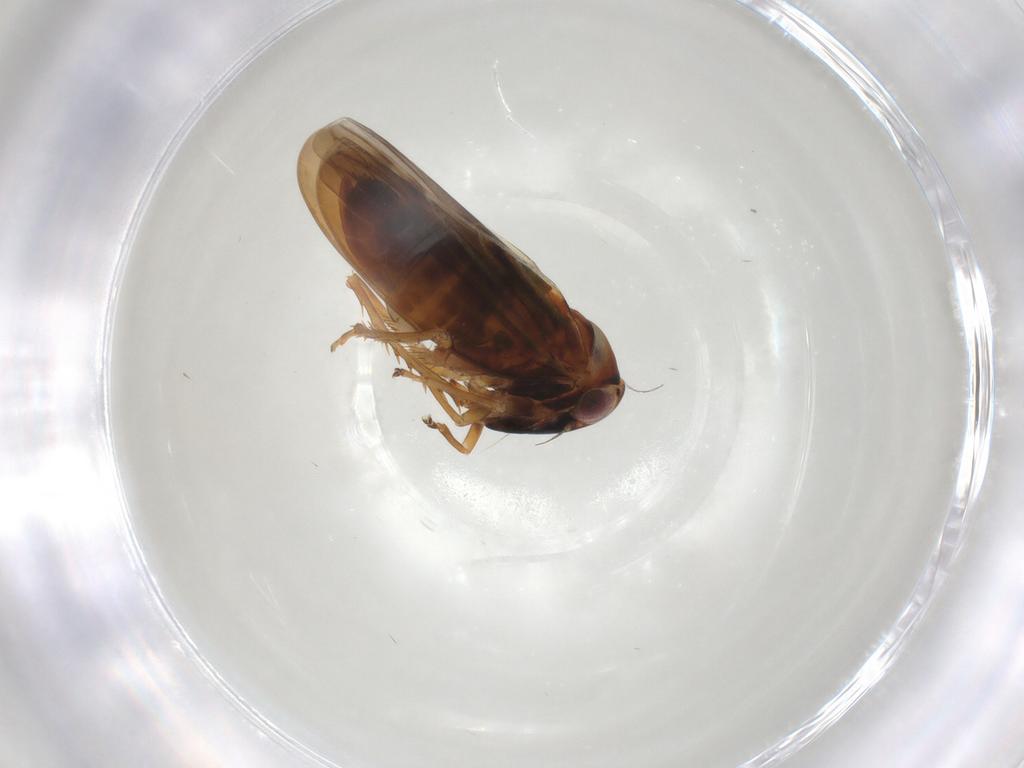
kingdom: Animalia
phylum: Arthropoda
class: Insecta
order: Hemiptera
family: Cicadellidae
